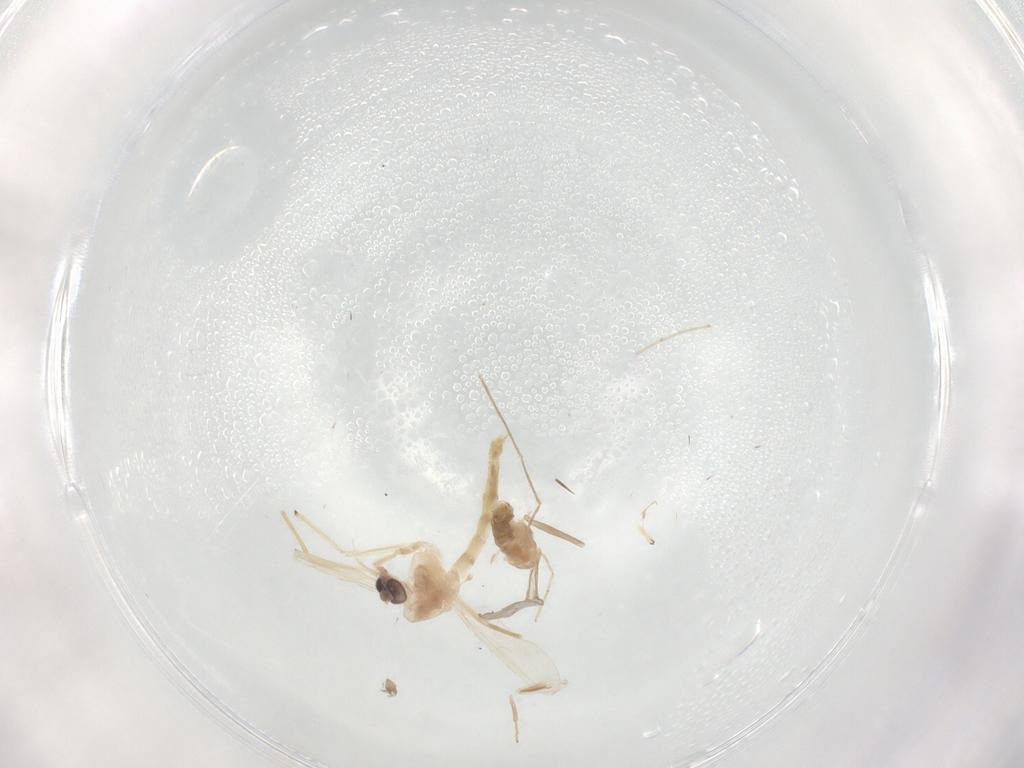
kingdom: Animalia
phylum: Arthropoda
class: Insecta
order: Diptera
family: Chironomidae
